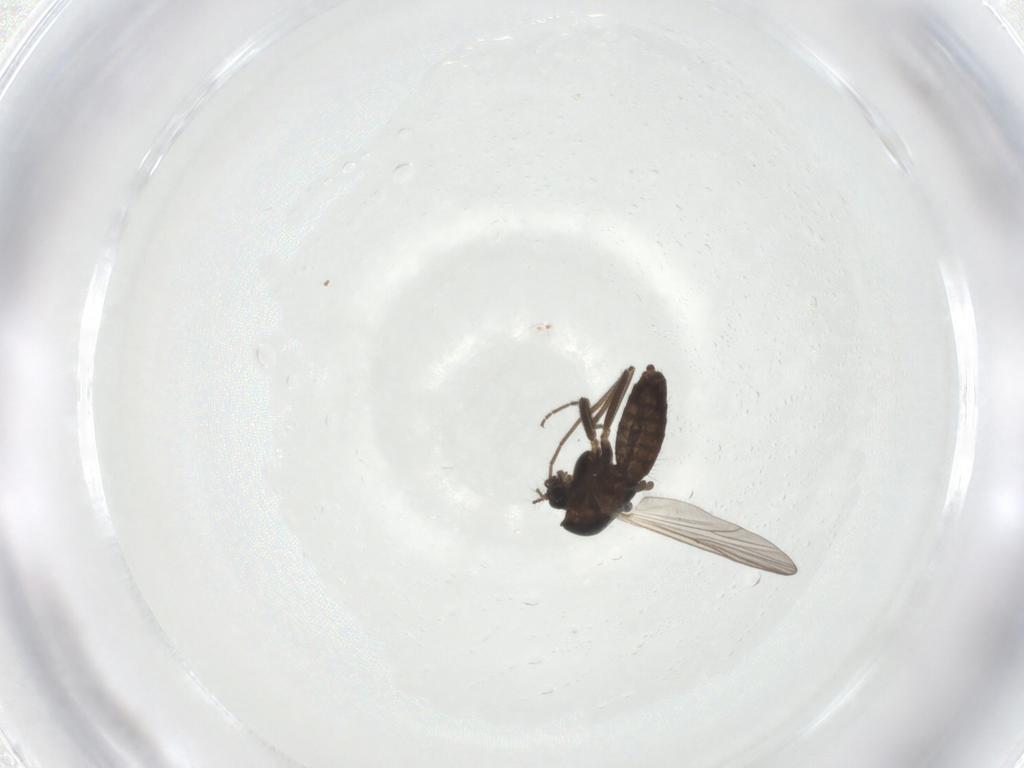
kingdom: Animalia
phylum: Arthropoda
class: Insecta
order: Diptera
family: Chironomidae
